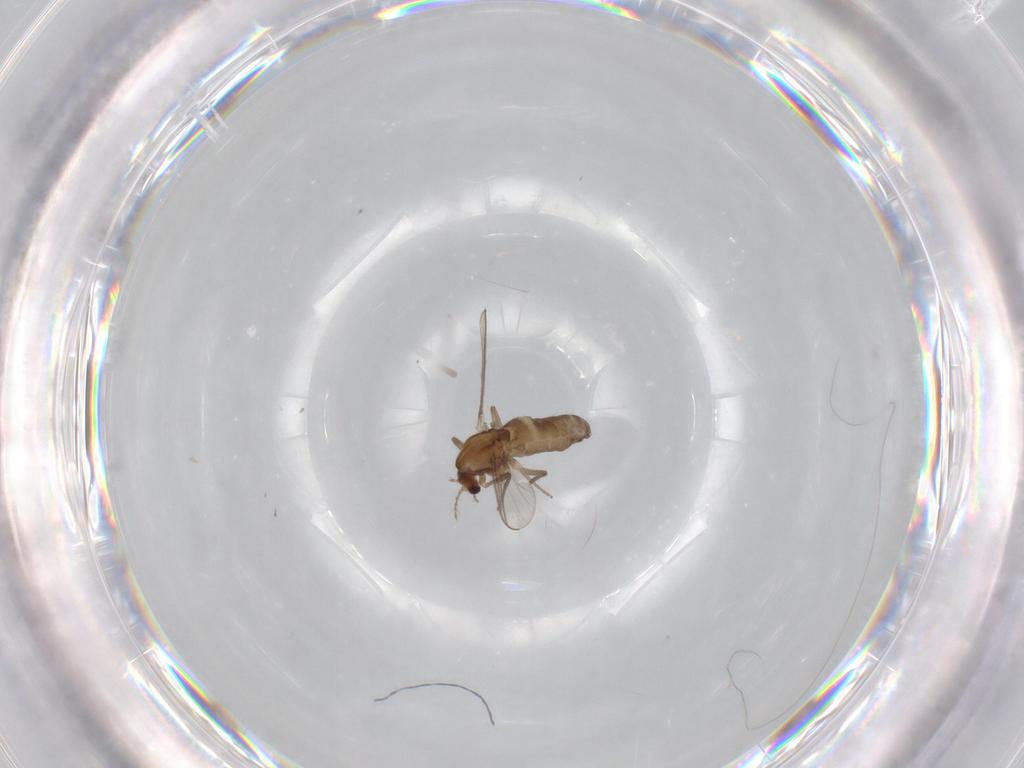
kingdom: Animalia
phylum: Arthropoda
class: Insecta
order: Diptera
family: Chironomidae
